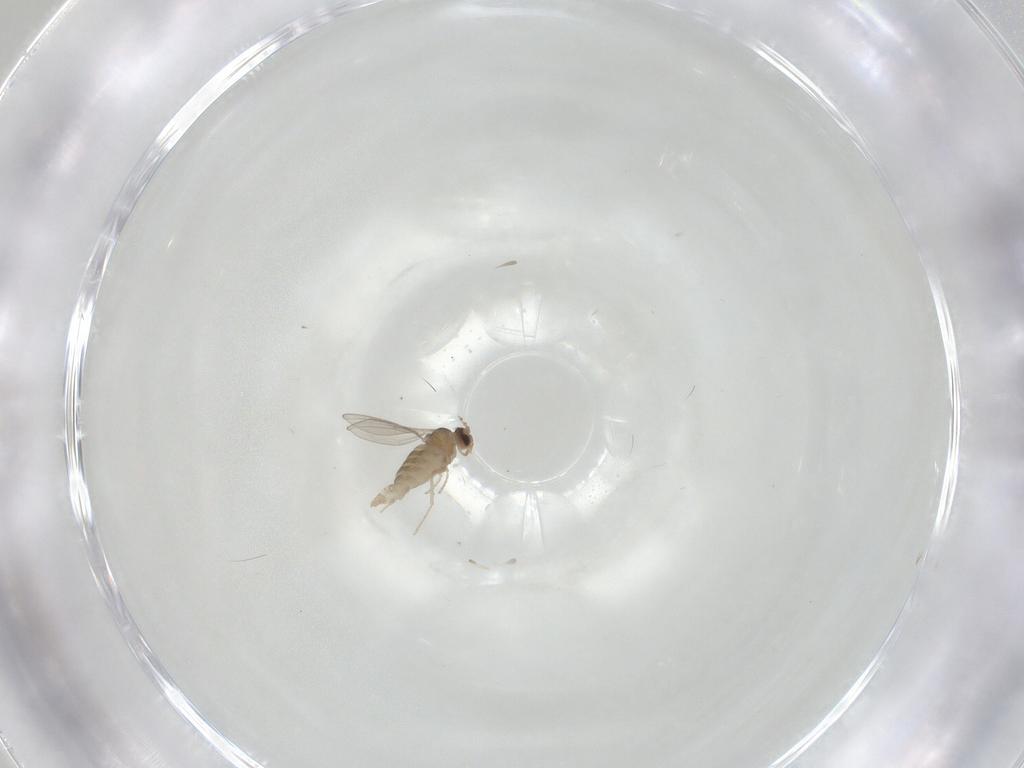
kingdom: Animalia
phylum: Arthropoda
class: Insecta
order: Diptera
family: Cecidomyiidae
